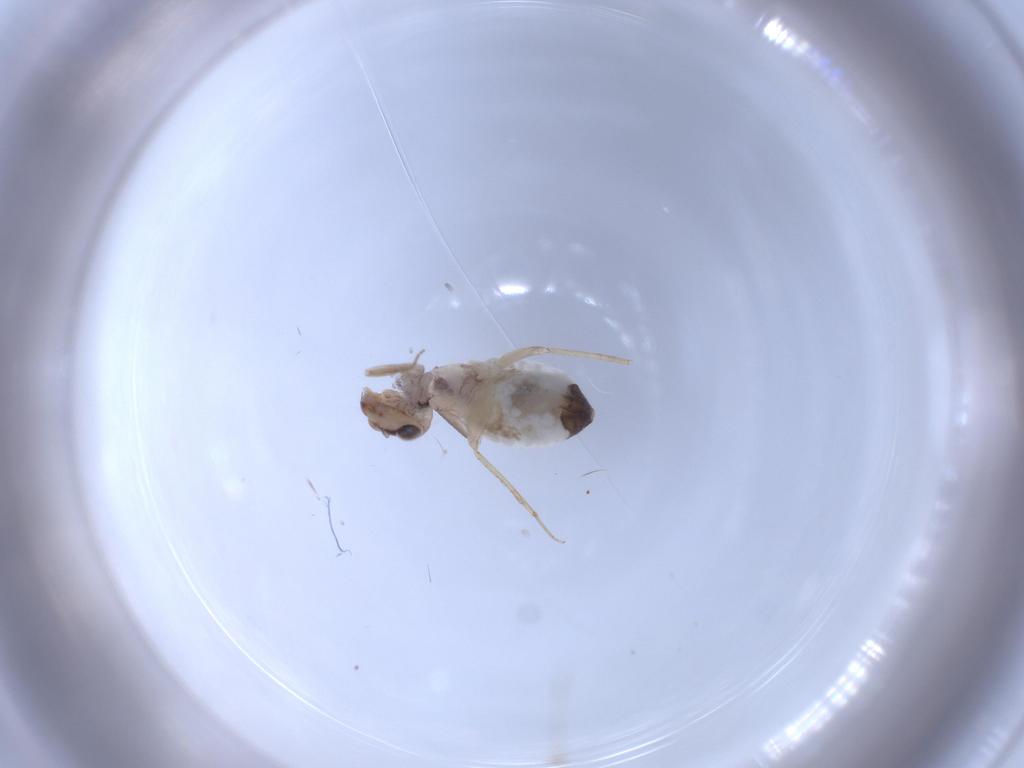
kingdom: Animalia
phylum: Arthropoda
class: Insecta
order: Psocodea
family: Lepidopsocidae
